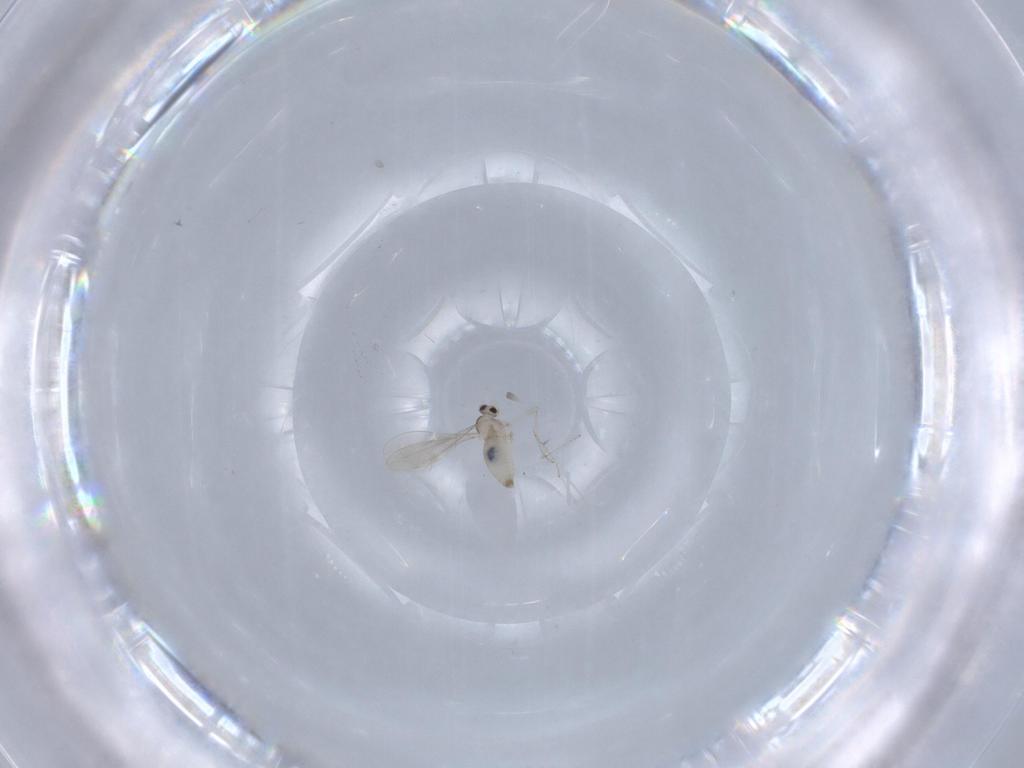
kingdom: Animalia
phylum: Arthropoda
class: Insecta
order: Diptera
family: Cecidomyiidae
